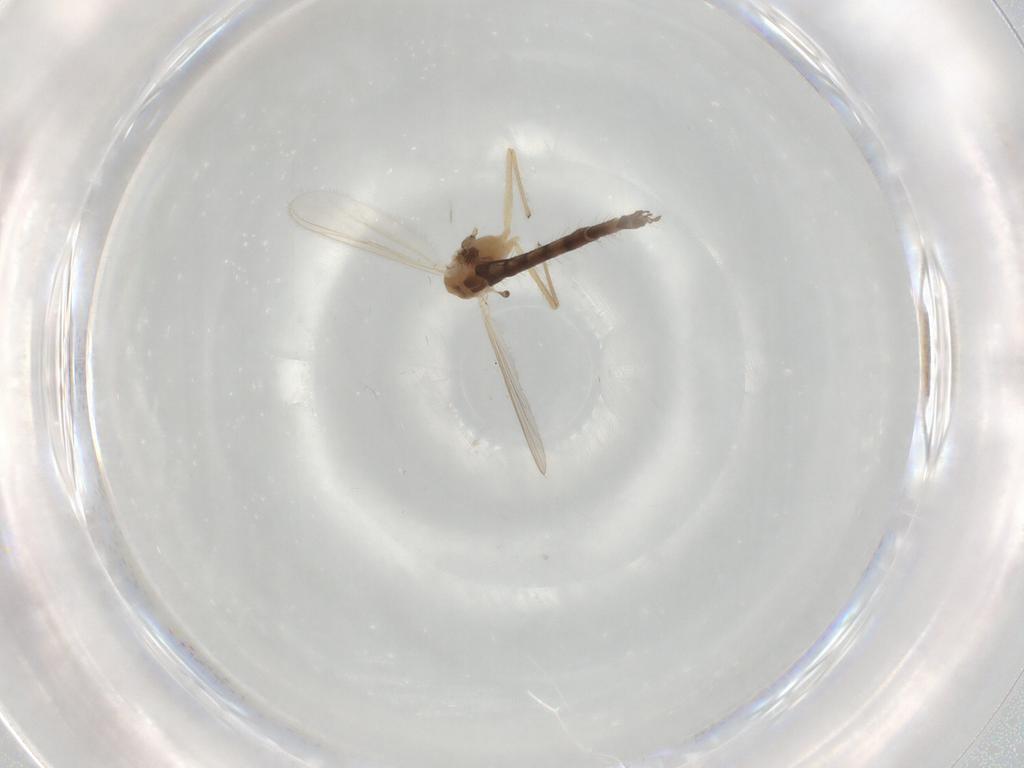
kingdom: Animalia
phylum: Arthropoda
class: Insecta
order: Diptera
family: Chironomidae
